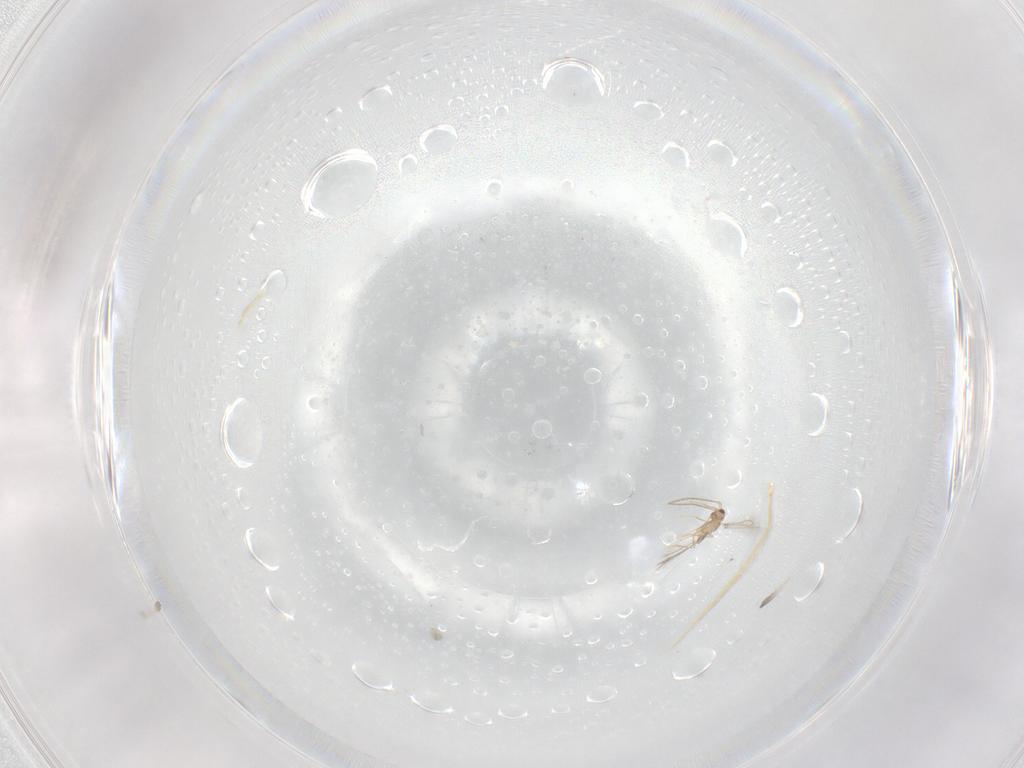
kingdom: Animalia
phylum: Arthropoda
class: Insecta
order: Hymenoptera
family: Mymaridae
